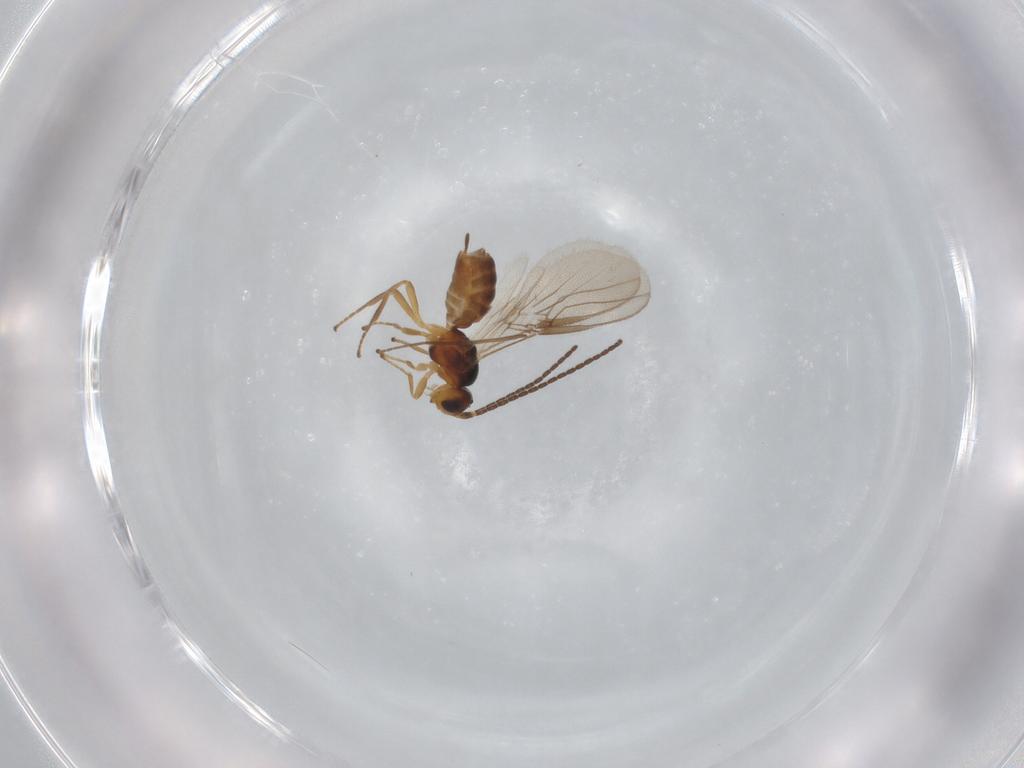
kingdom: Animalia
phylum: Arthropoda
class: Insecta
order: Hymenoptera
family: Braconidae
